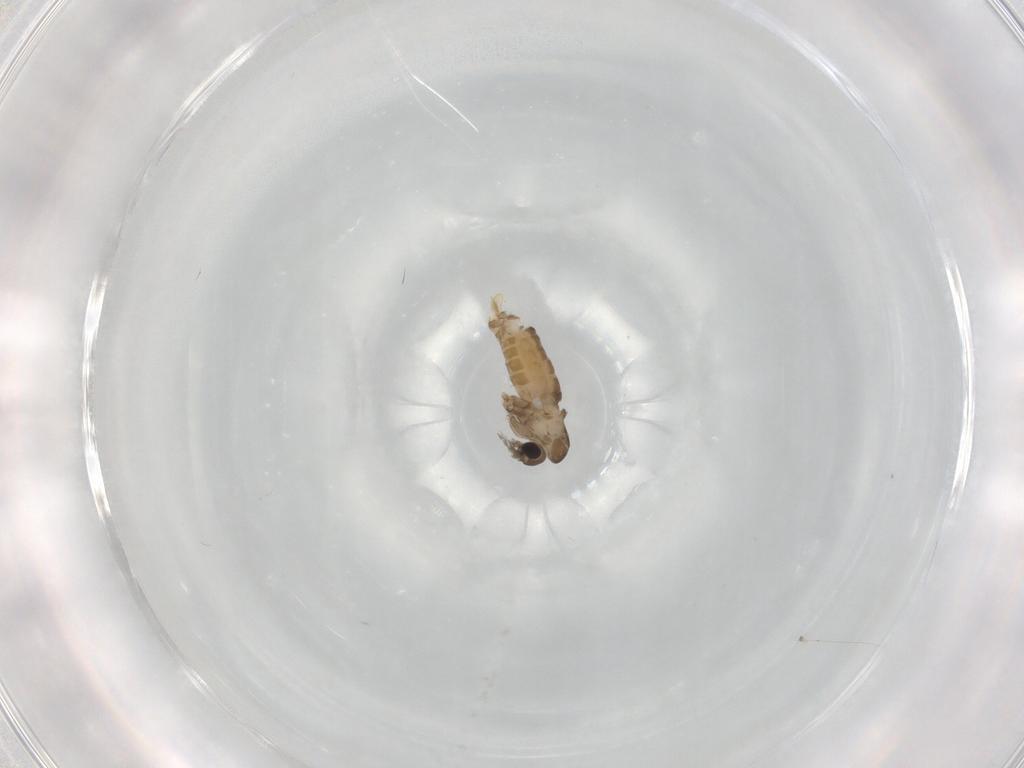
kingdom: Animalia
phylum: Arthropoda
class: Insecta
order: Diptera
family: Psychodidae
